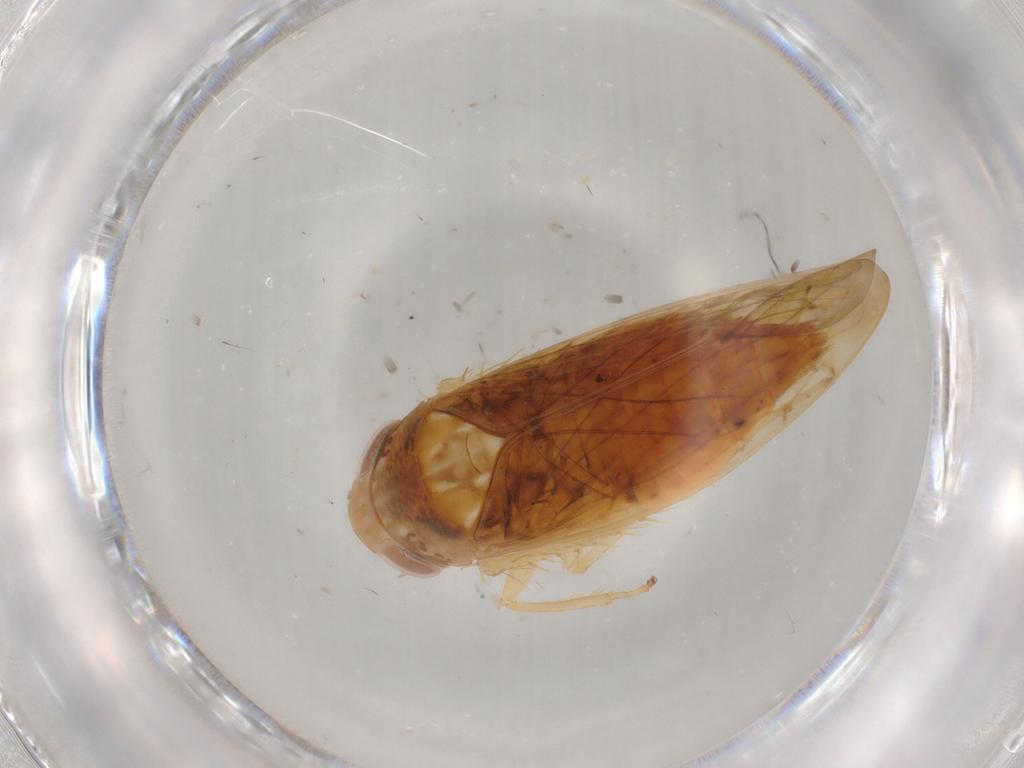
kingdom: Animalia
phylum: Arthropoda
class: Insecta
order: Hemiptera
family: Cicadellidae
